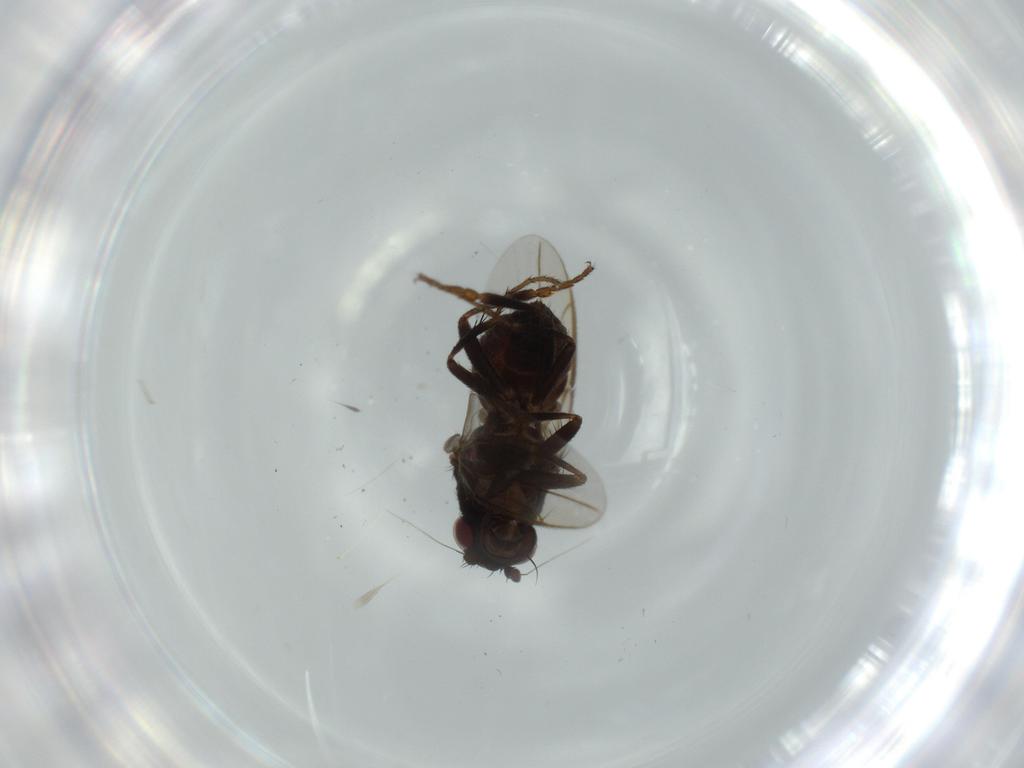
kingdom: Animalia
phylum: Arthropoda
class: Insecta
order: Diptera
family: Sphaeroceridae
